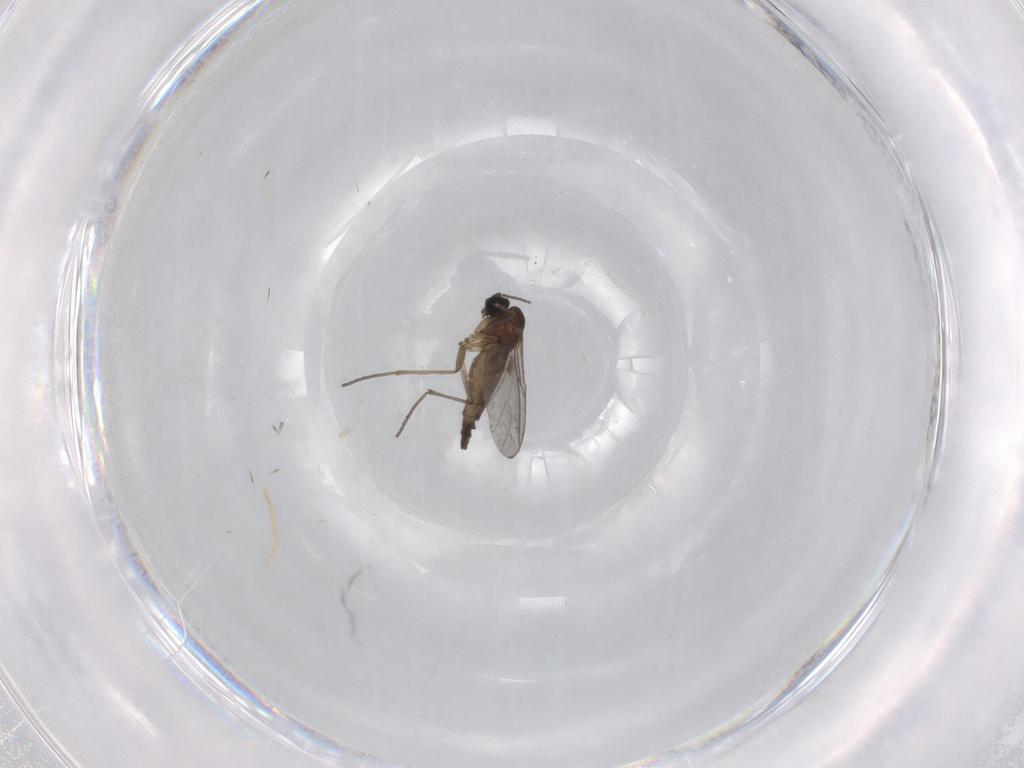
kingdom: Animalia
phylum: Arthropoda
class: Insecta
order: Diptera
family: Sciaridae
